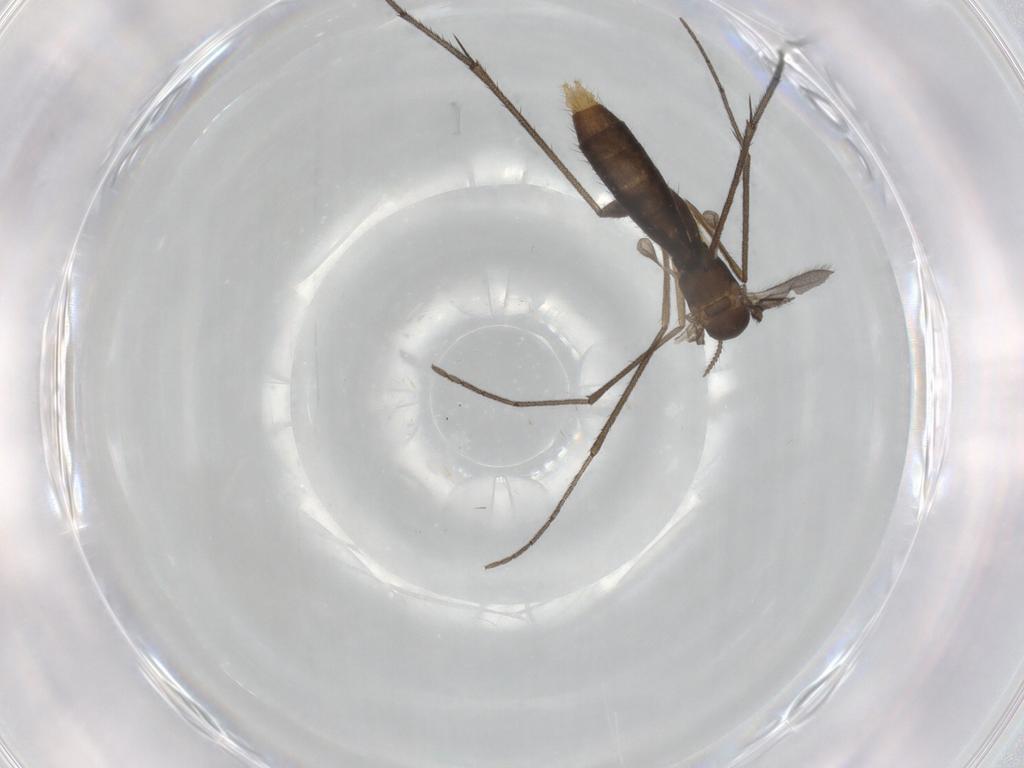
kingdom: Animalia
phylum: Arthropoda
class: Insecta
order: Diptera
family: Ditomyiidae
